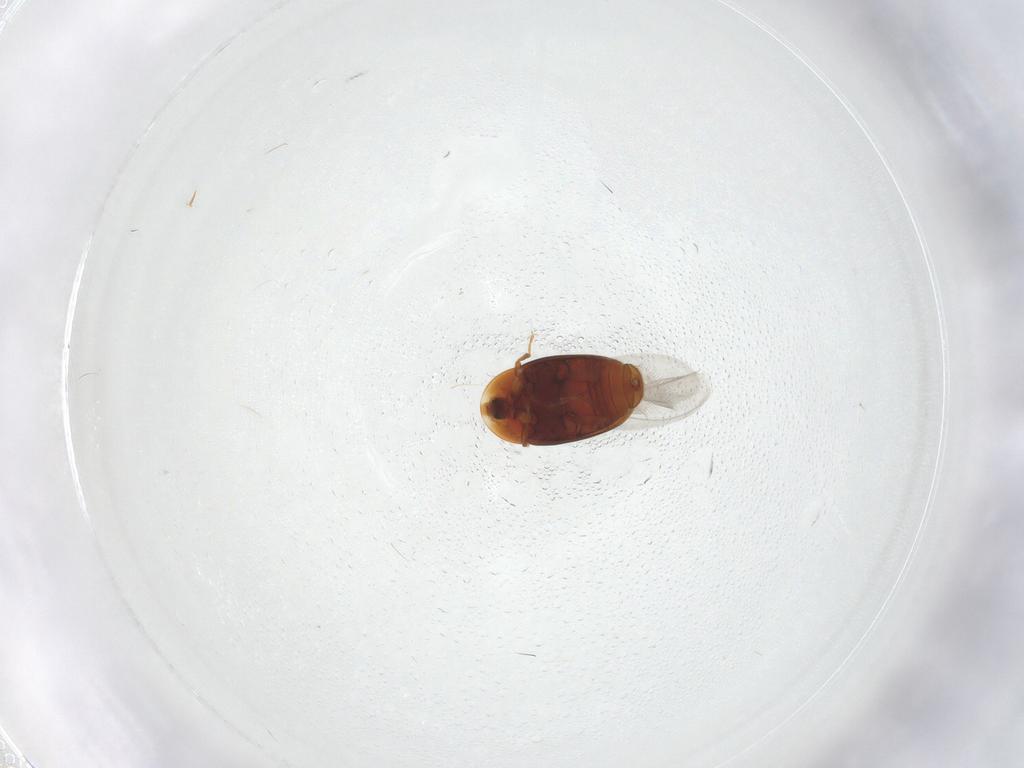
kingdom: Animalia
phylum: Arthropoda
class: Insecta
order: Coleoptera
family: Corylophidae
